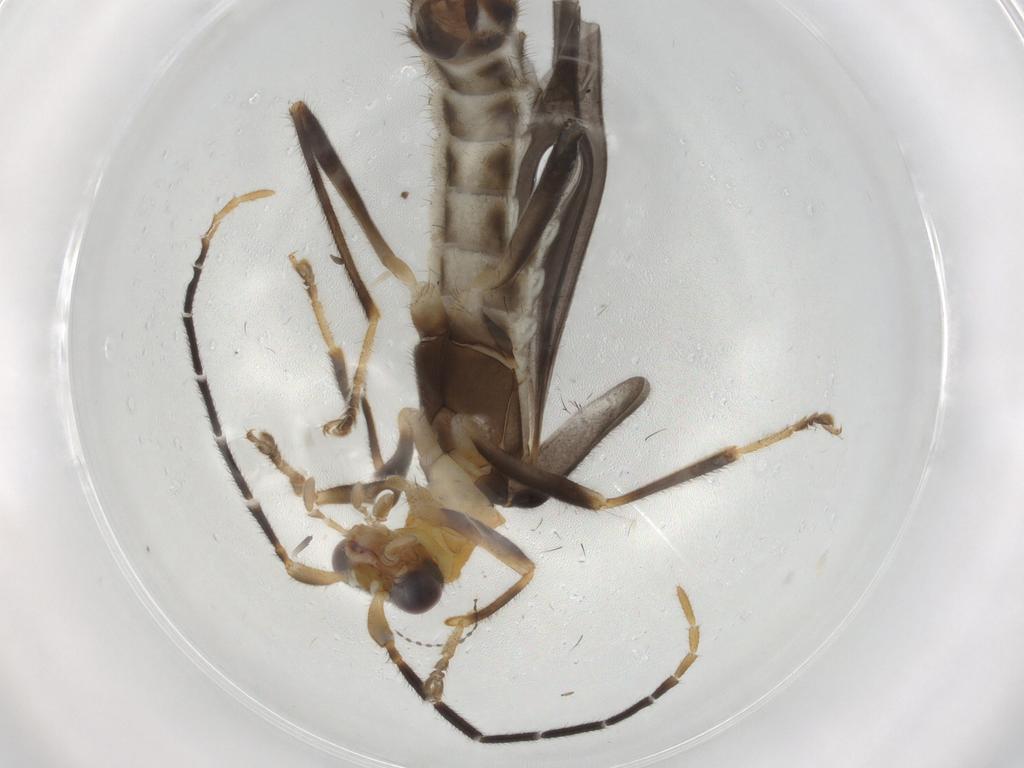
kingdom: Animalia
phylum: Arthropoda
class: Insecta
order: Coleoptera
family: Cantharidae
